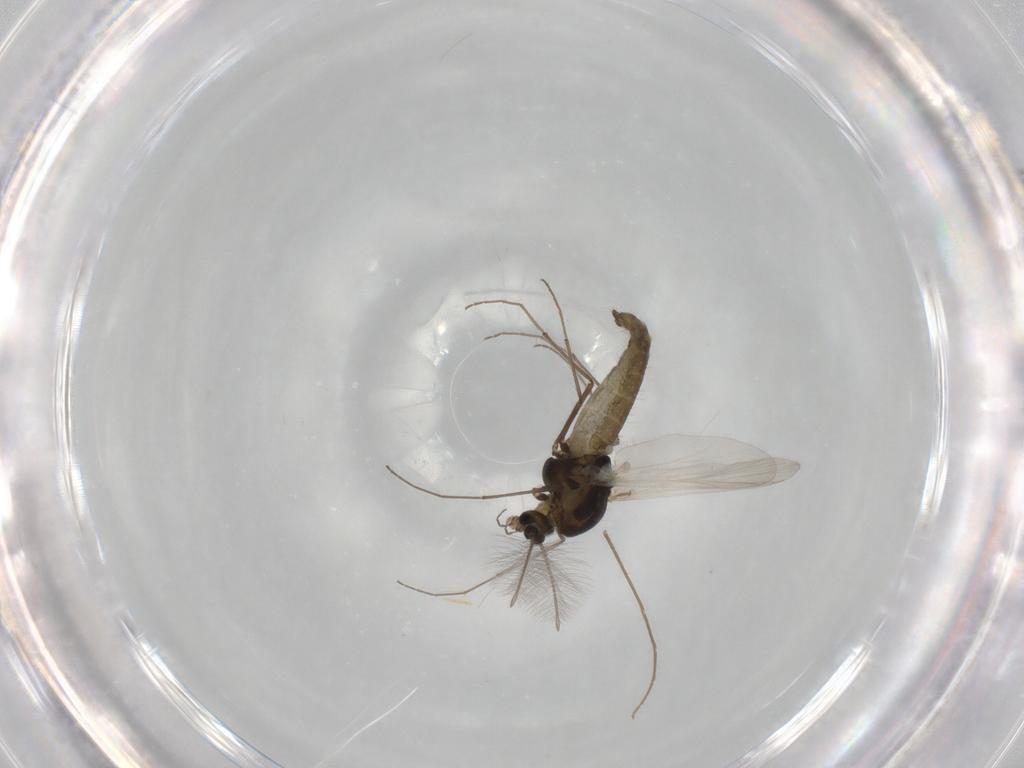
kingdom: Animalia
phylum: Arthropoda
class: Insecta
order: Diptera
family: Chironomidae
